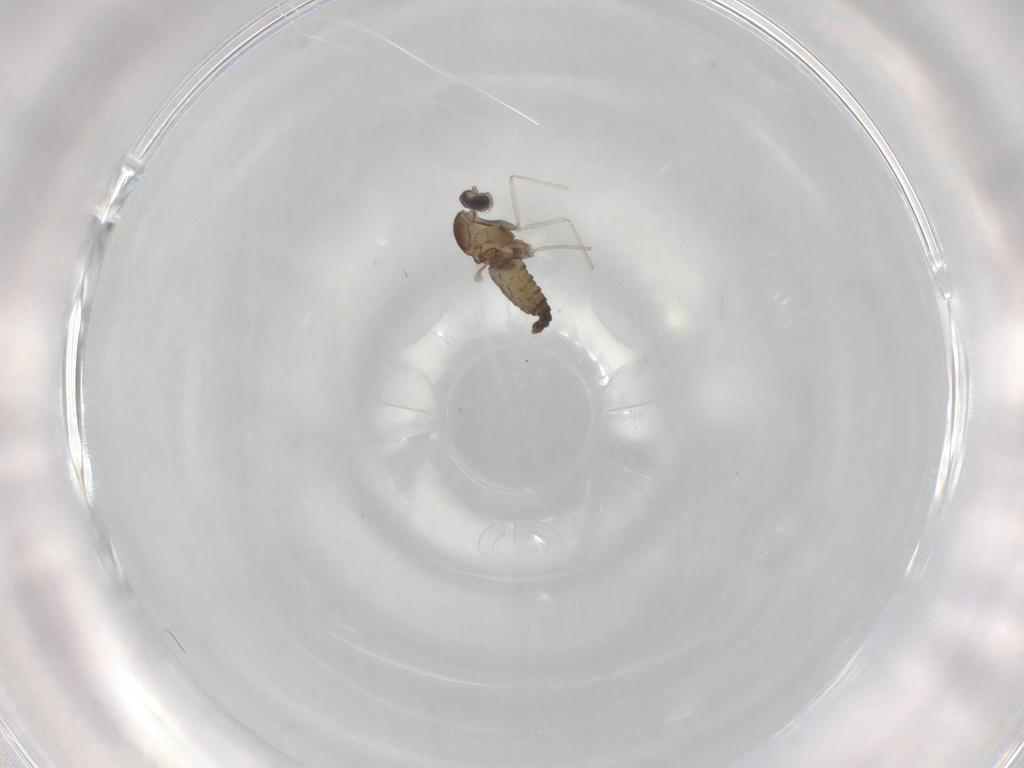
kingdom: Animalia
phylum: Arthropoda
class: Insecta
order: Diptera
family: Cecidomyiidae
